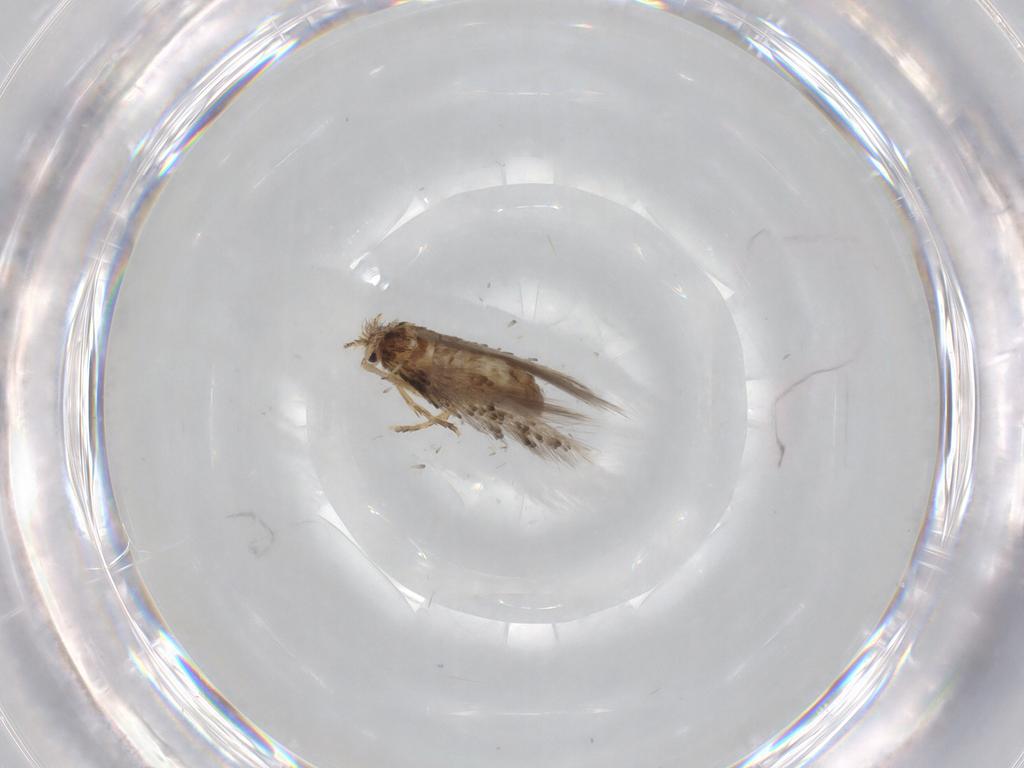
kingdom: Animalia
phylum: Arthropoda
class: Insecta
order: Lepidoptera
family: Nepticulidae
